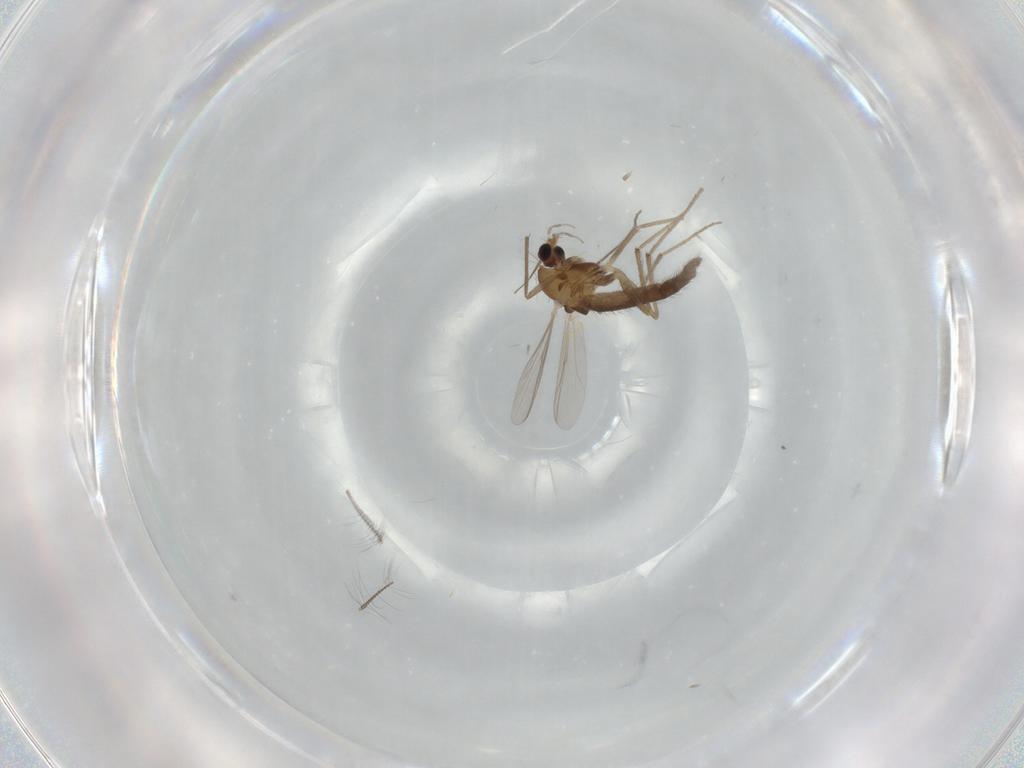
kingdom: Animalia
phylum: Arthropoda
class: Insecta
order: Diptera
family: Chironomidae
